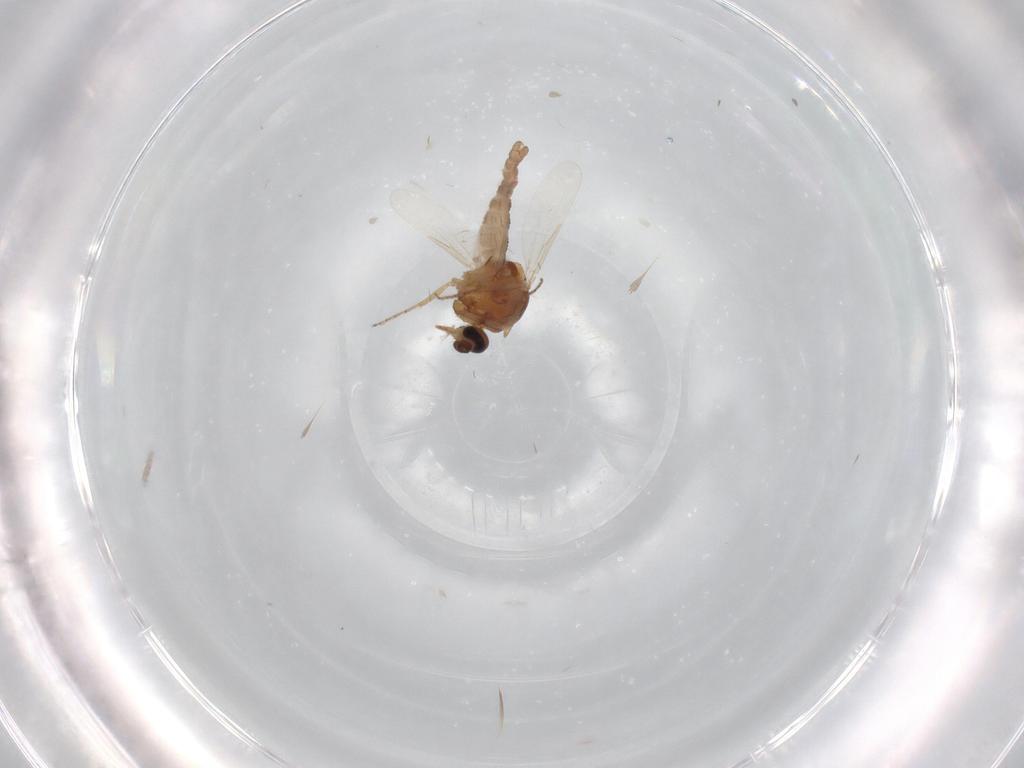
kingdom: Animalia
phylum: Arthropoda
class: Insecta
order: Diptera
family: Ceratopogonidae
